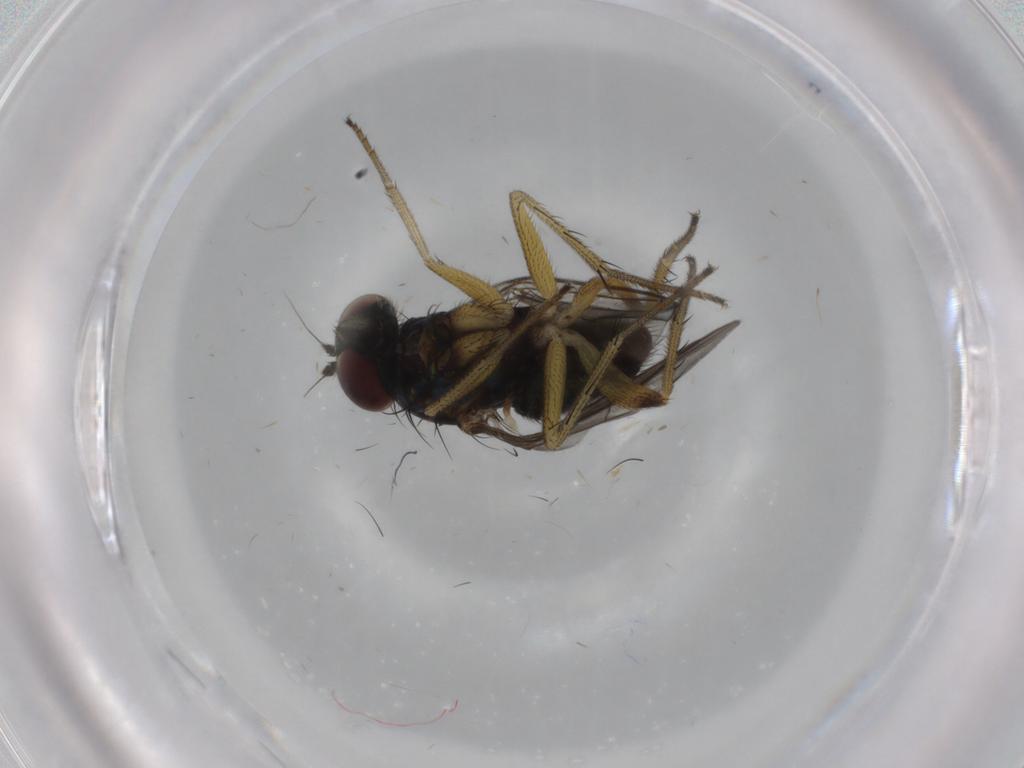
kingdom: Animalia
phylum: Arthropoda
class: Insecta
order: Diptera
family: Dolichopodidae
